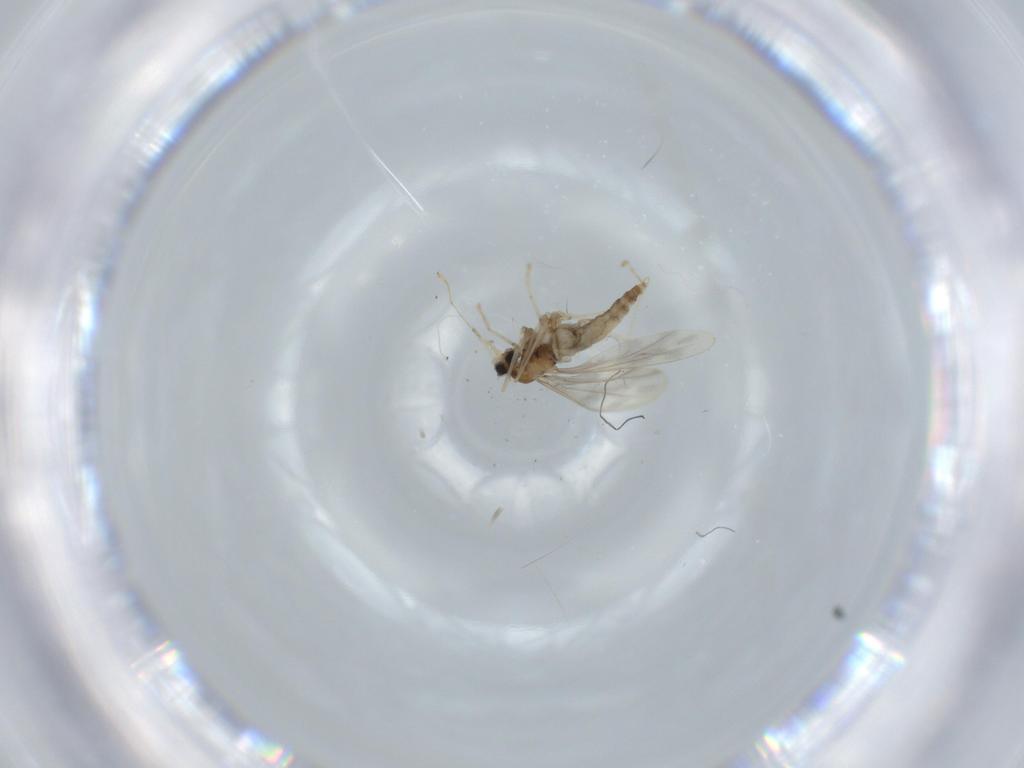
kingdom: Animalia
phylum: Arthropoda
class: Insecta
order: Diptera
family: Cecidomyiidae
